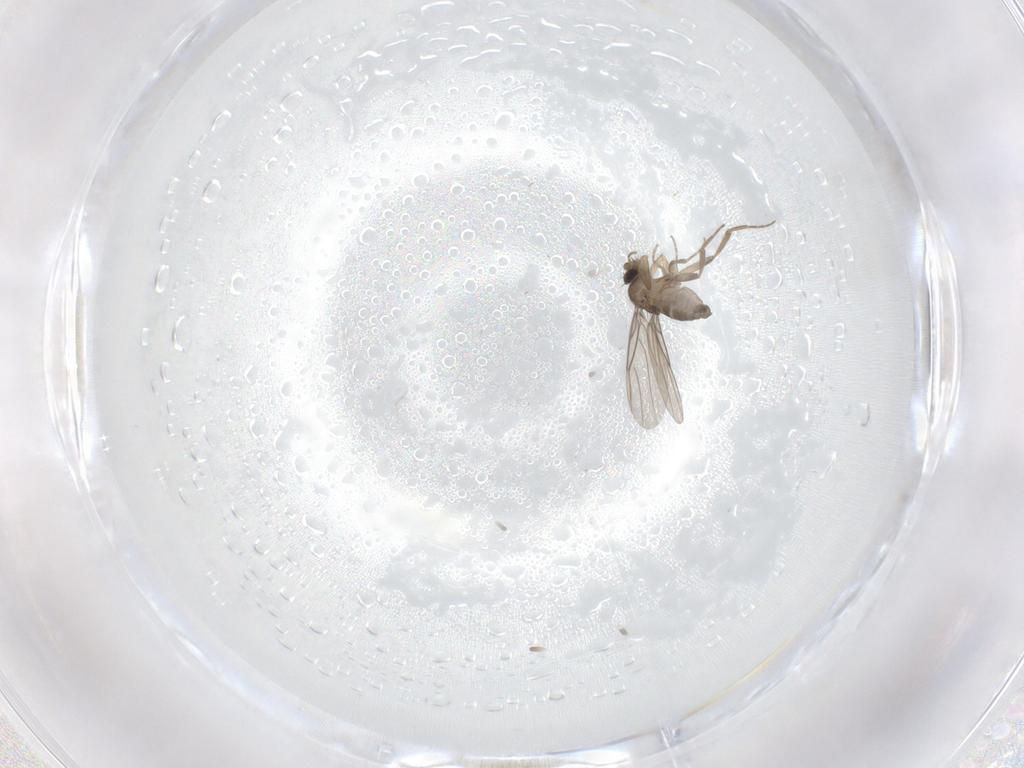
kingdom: Animalia
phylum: Arthropoda
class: Insecta
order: Diptera
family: Phoridae
